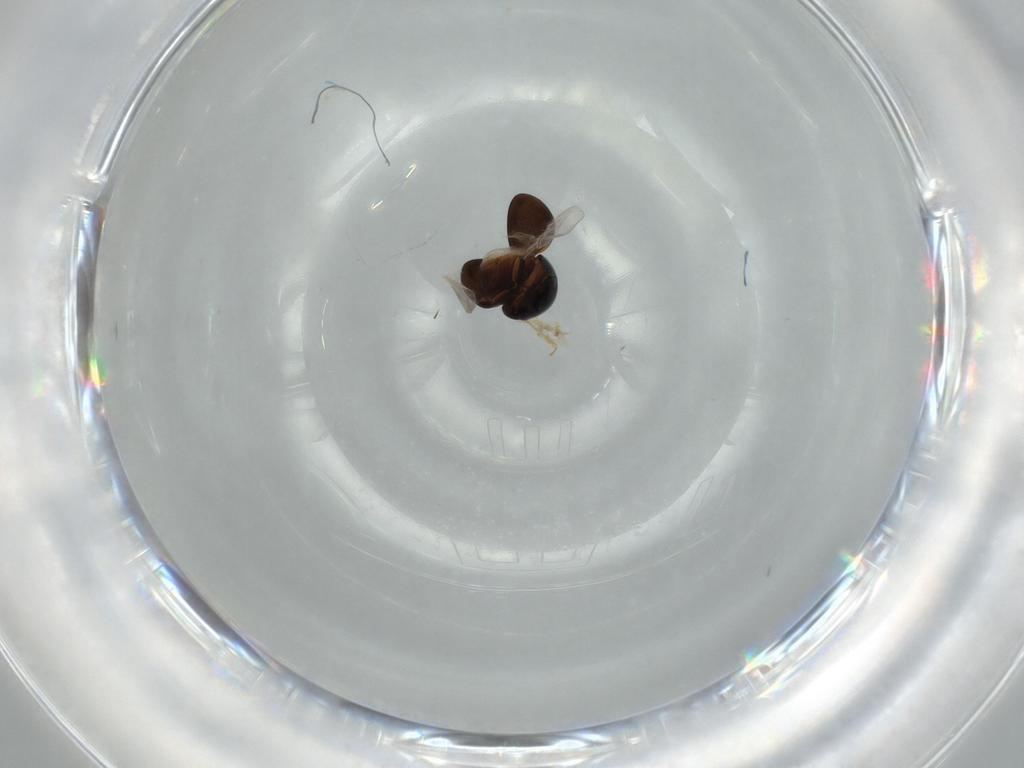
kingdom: Animalia
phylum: Arthropoda
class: Insecta
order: Coleoptera
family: Cybocephalidae
